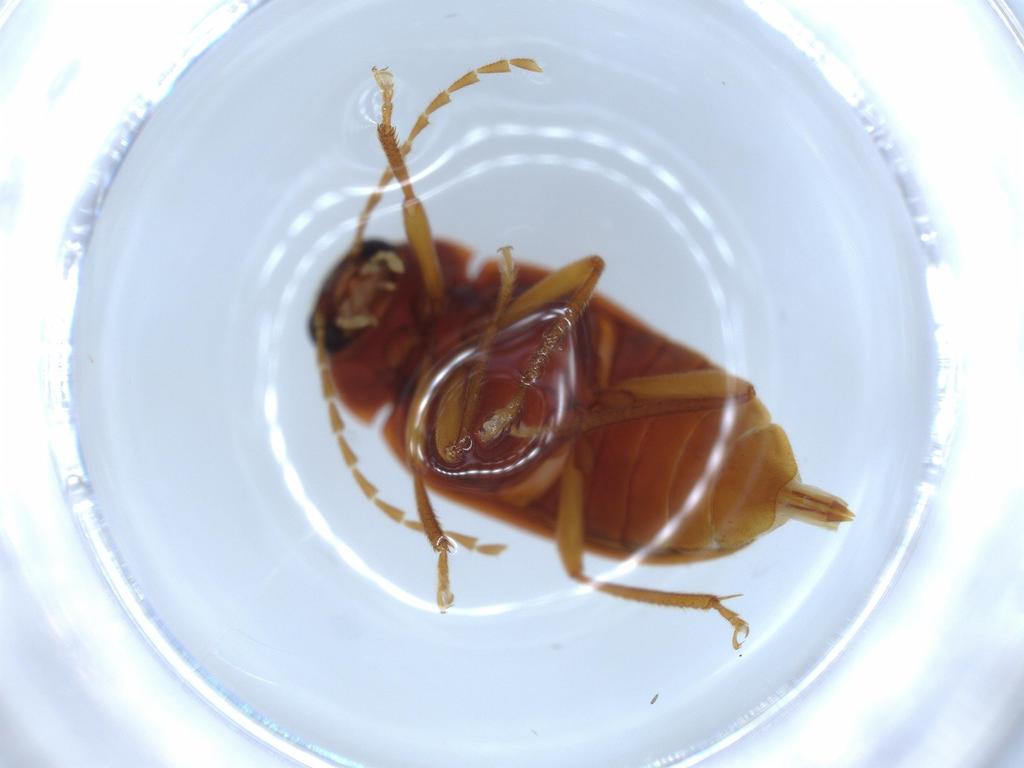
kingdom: Animalia
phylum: Arthropoda
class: Insecta
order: Coleoptera
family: Ptilodactylidae
